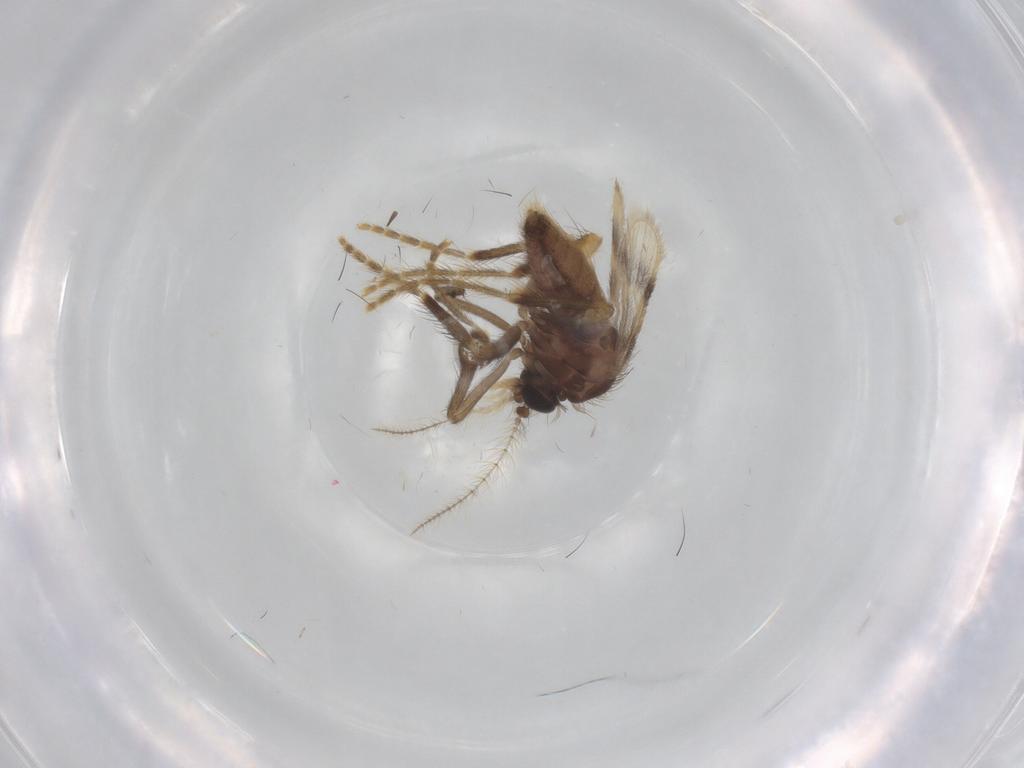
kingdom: Animalia
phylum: Arthropoda
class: Insecta
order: Diptera
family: Corethrellidae
